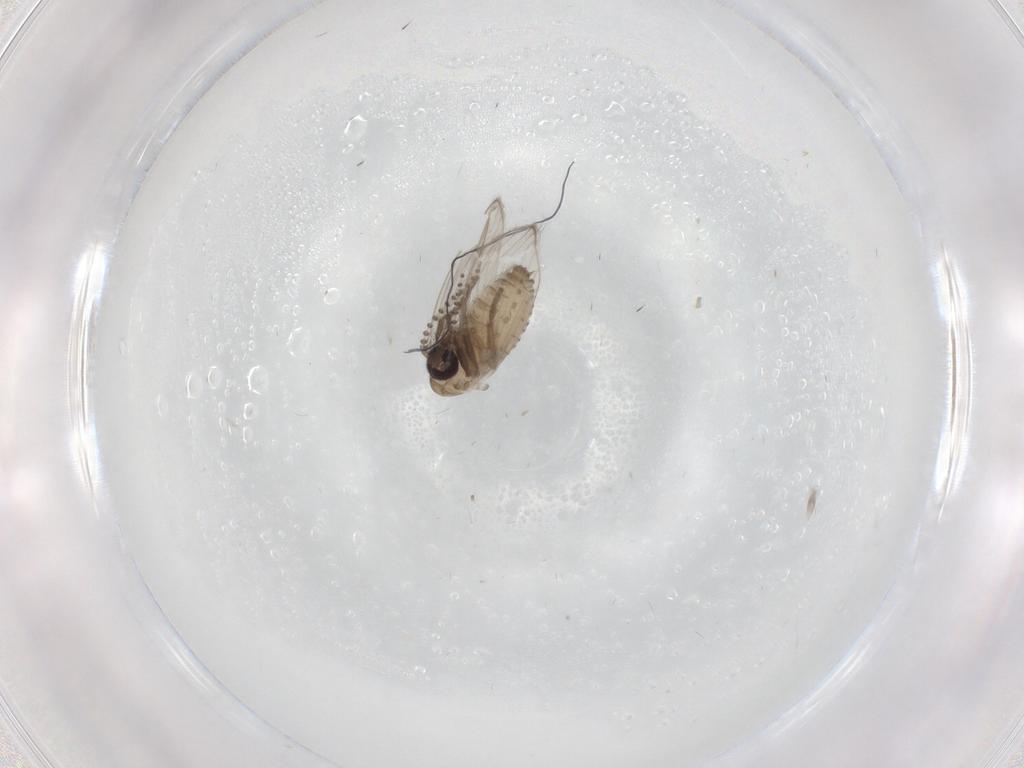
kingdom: Animalia
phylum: Arthropoda
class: Insecta
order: Diptera
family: Psychodidae
